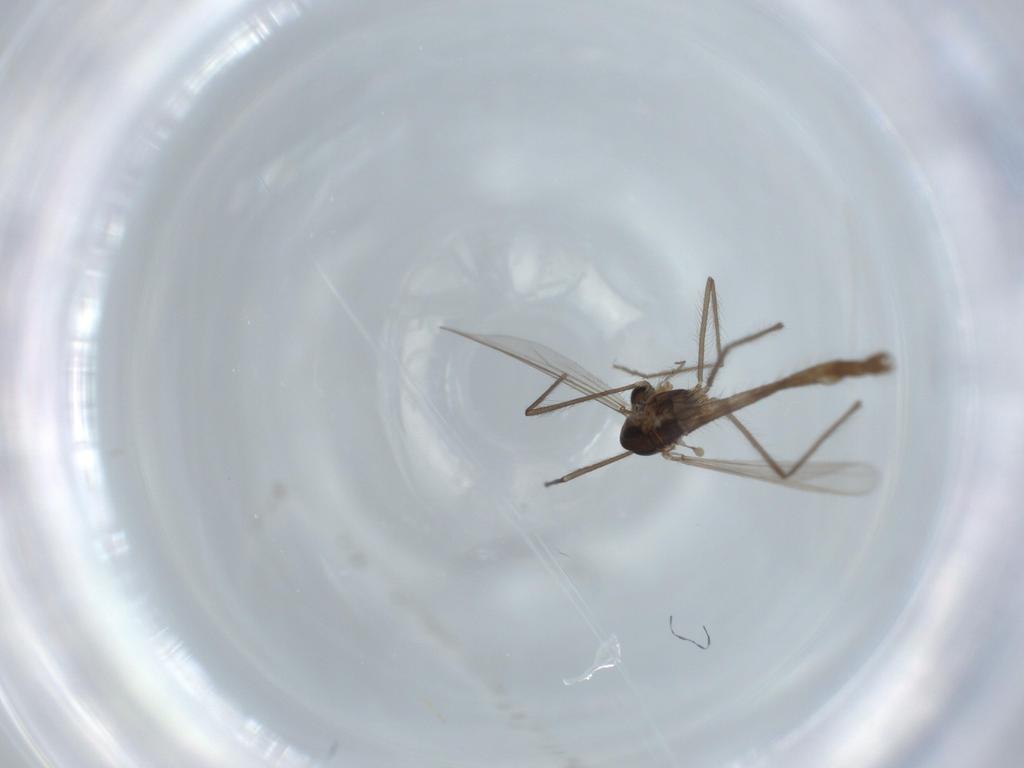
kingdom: Animalia
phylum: Arthropoda
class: Insecta
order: Diptera
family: Chironomidae
